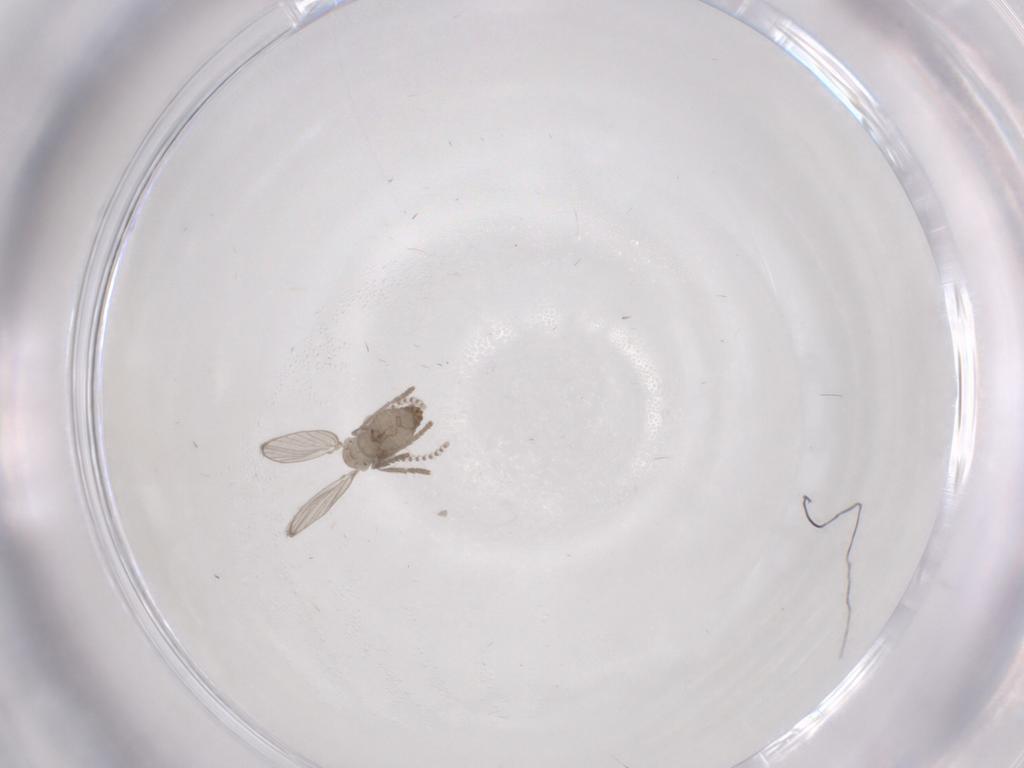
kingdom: Animalia
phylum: Arthropoda
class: Insecta
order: Diptera
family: Psychodidae
